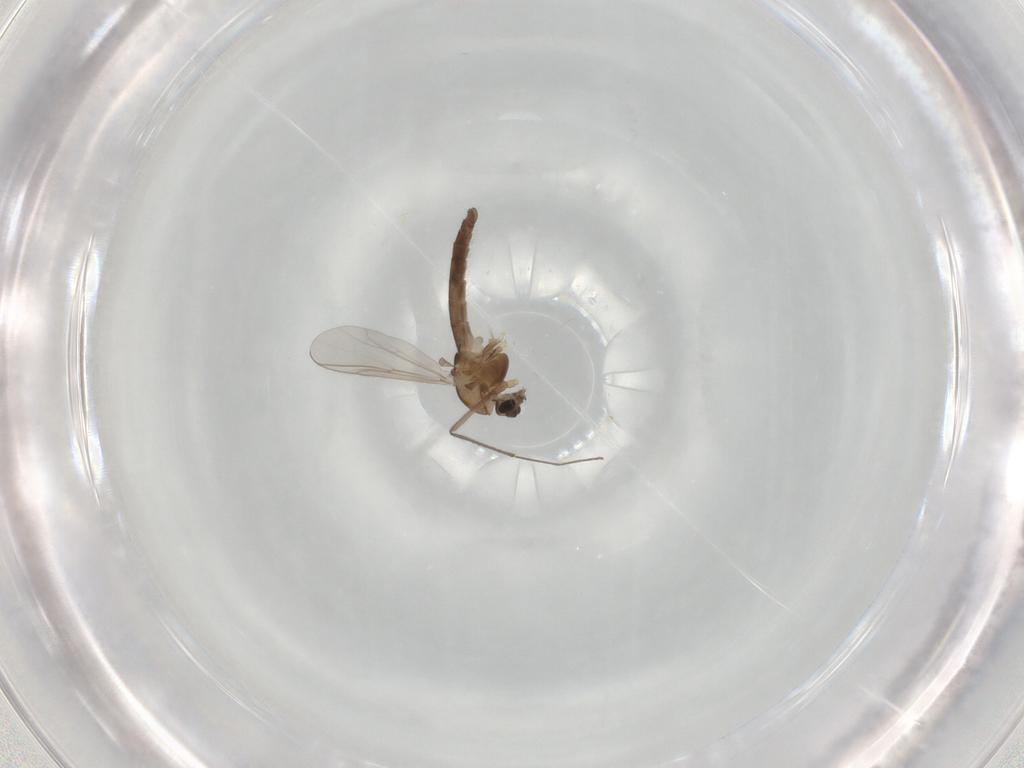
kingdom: Animalia
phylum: Arthropoda
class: Insecta
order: Diptera
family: Chironomidae
